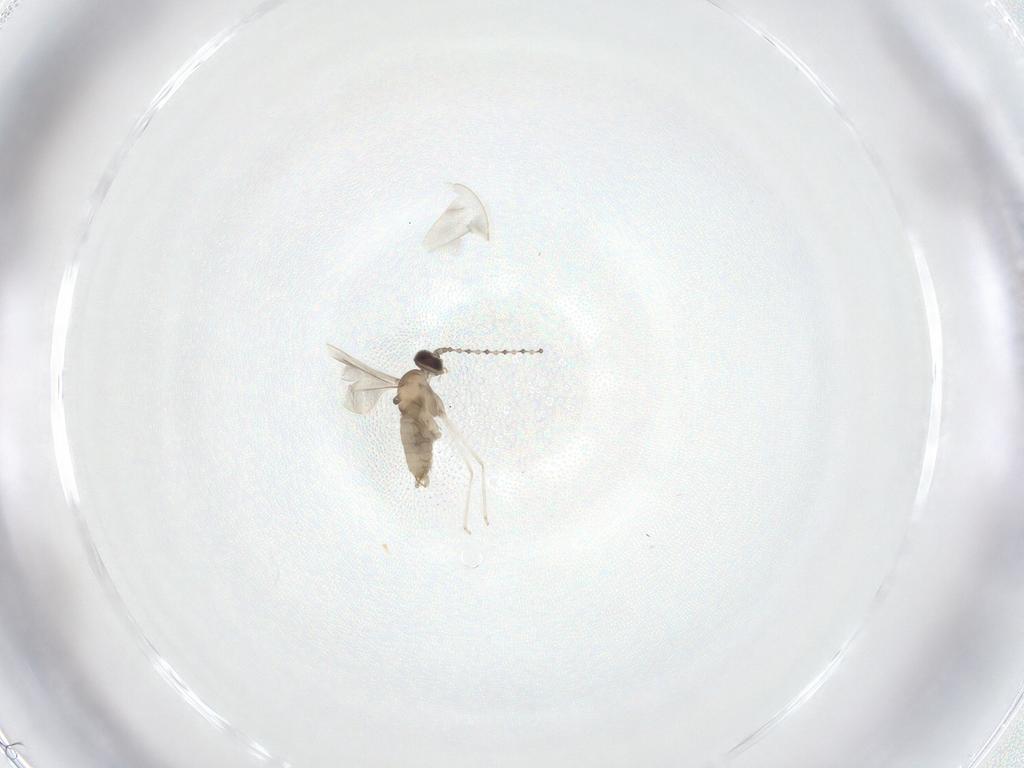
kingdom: Animalia
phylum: Arthropoda
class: Insecta
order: Diptera
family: Cecidomyiidae
